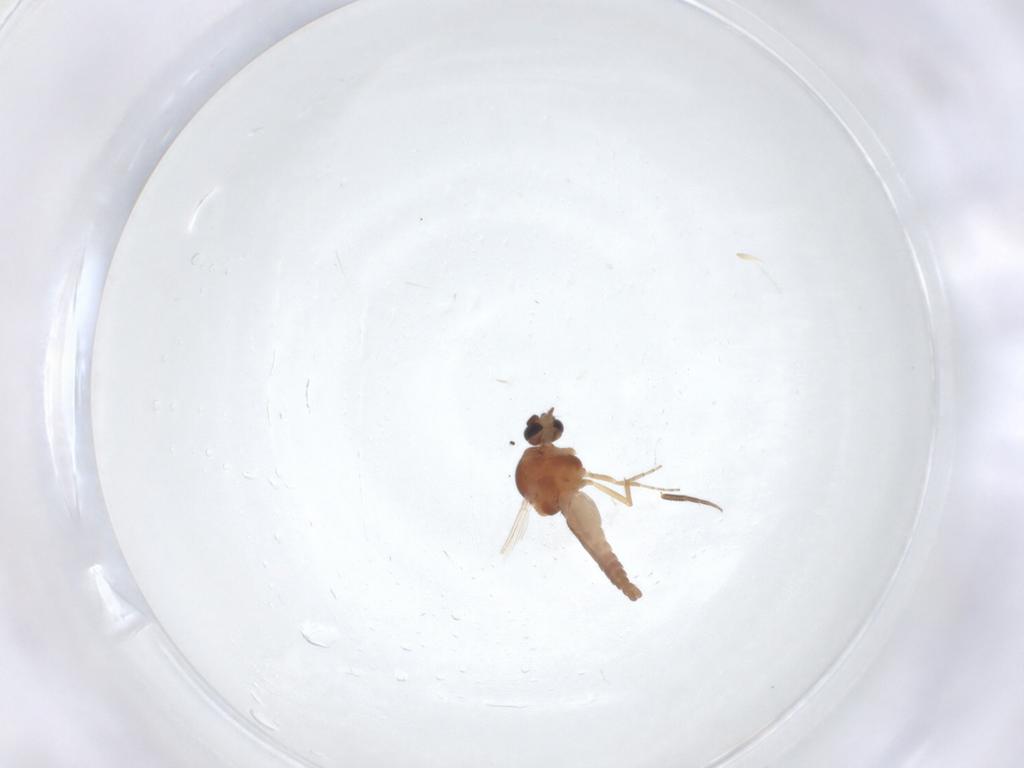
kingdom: Animalia
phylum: Arthropoda
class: Insecta
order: Diptera
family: Ceratopogonidae
